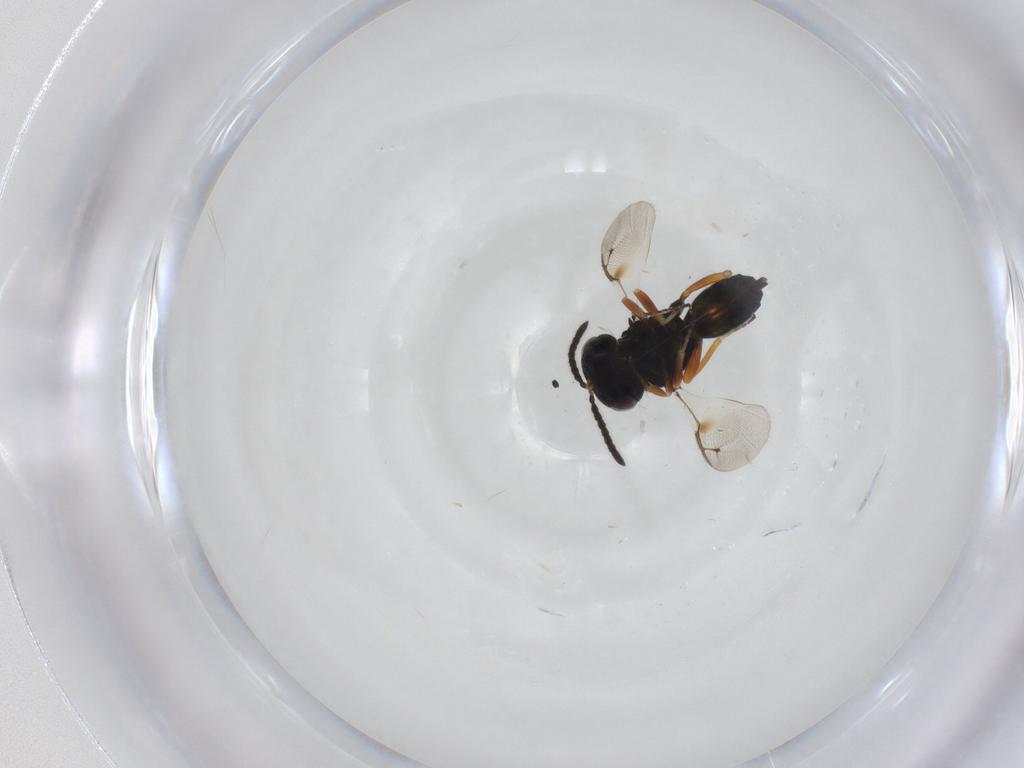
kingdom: Animalia
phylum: Arthropoda
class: Insecta
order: Hymenoptera
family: Pteromalidae
